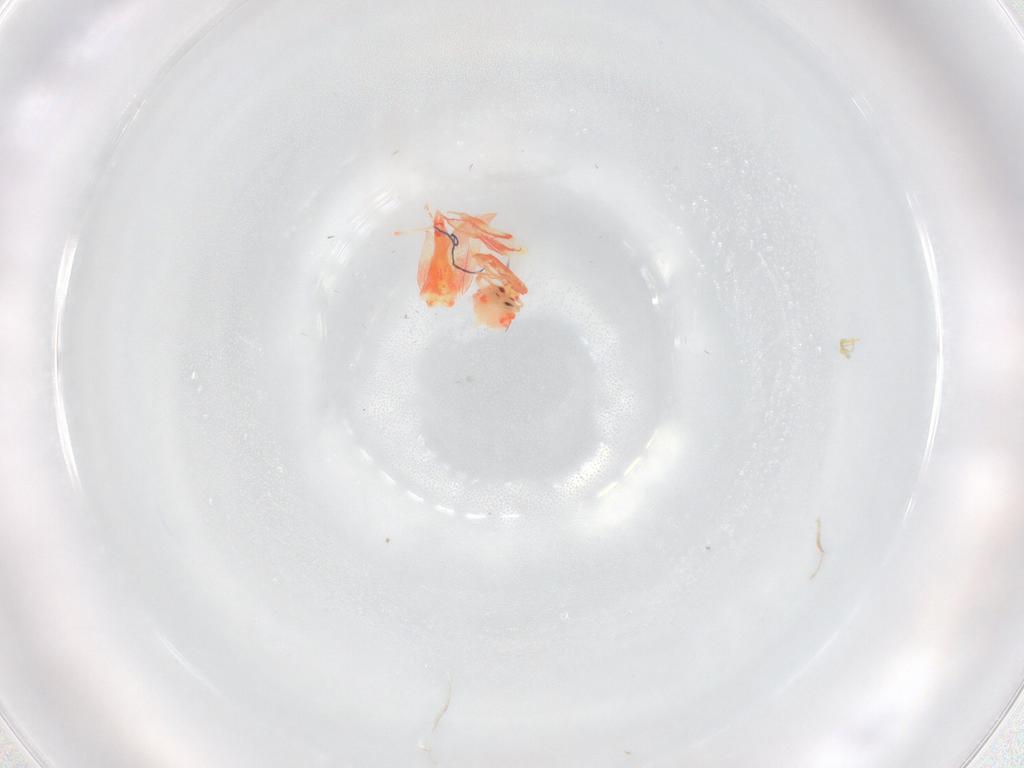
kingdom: Animalia
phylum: Arthropoda
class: Insecta
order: Hemiptera
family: Aleyrodidae
